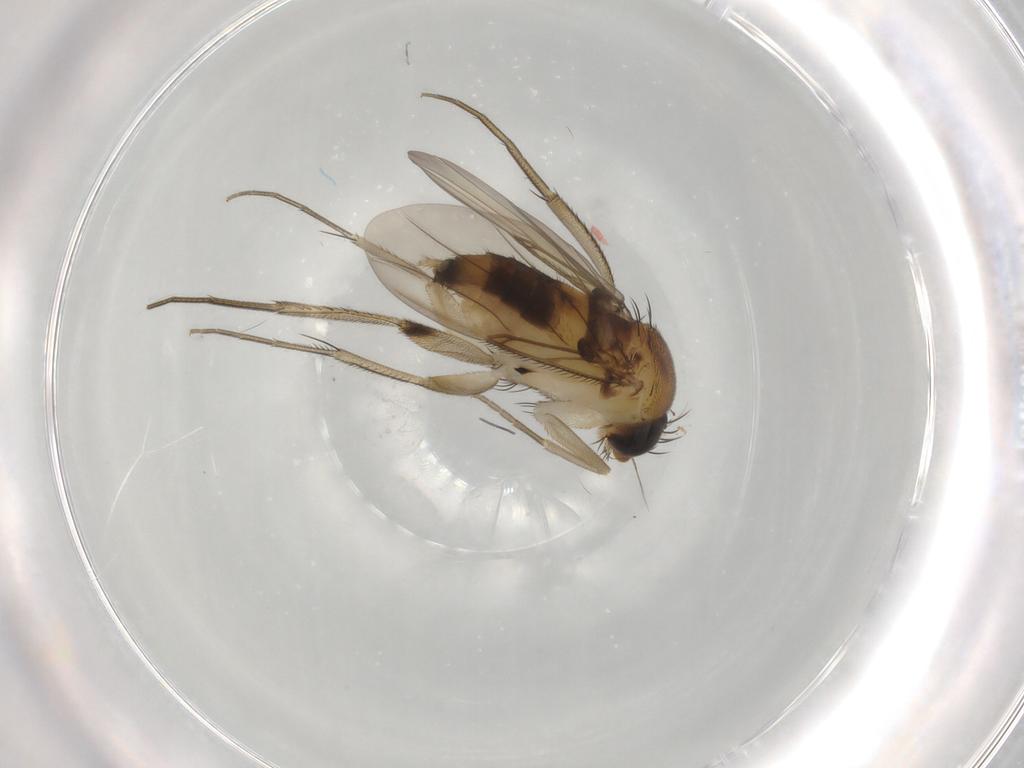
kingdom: Animalia
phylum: Arthropoda
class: Insecta
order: Diptera
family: Phoridae
